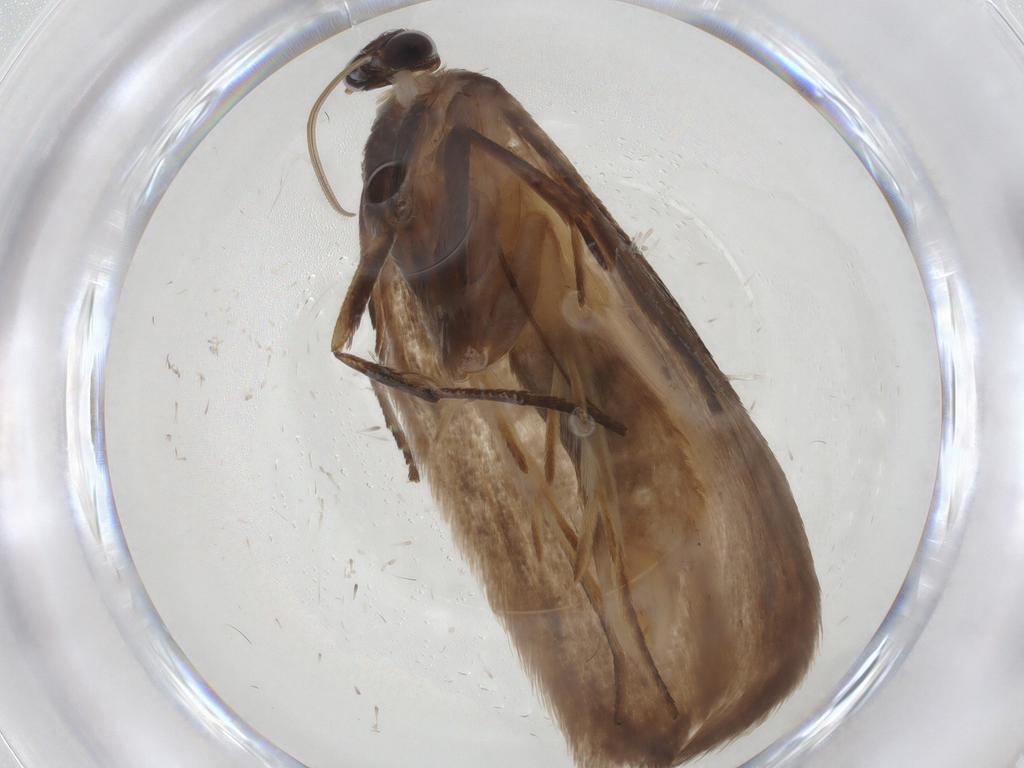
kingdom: Animalia
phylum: Arthropoda
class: Insecta
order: Lepidoptera
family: Roeslerstammiidae
